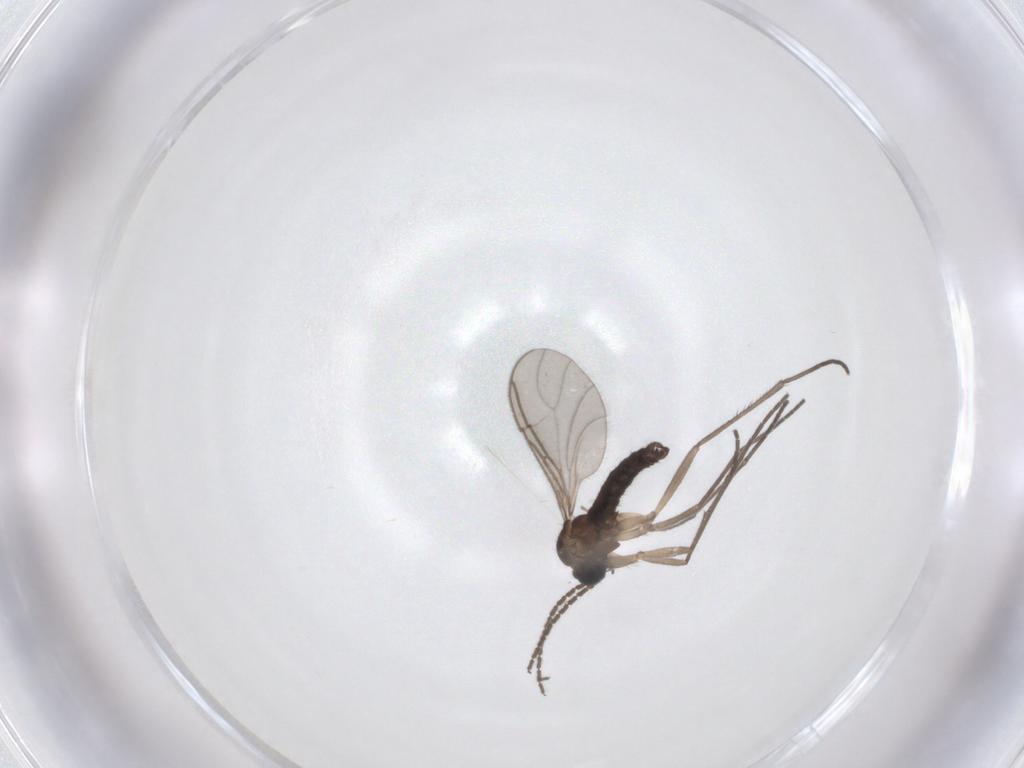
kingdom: Animalia
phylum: Arthropoda
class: Insecta
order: Diptera
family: Sciaridae
